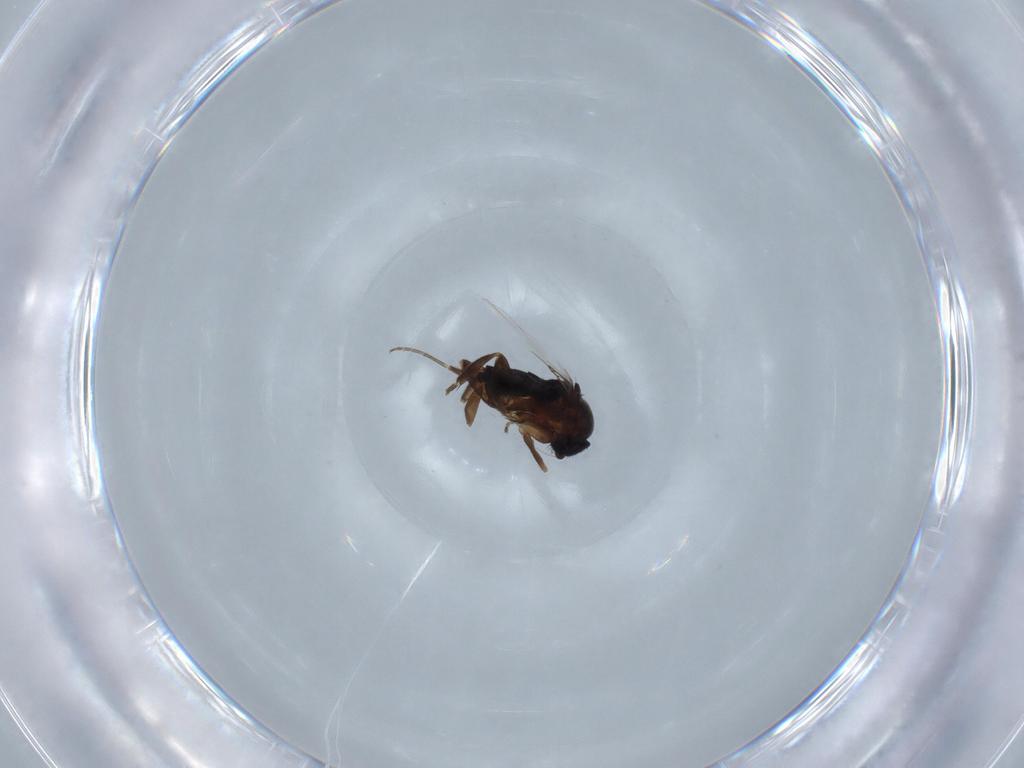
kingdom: Animalia
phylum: Arthropoda
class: Insecta
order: Diptera
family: Phoridae
